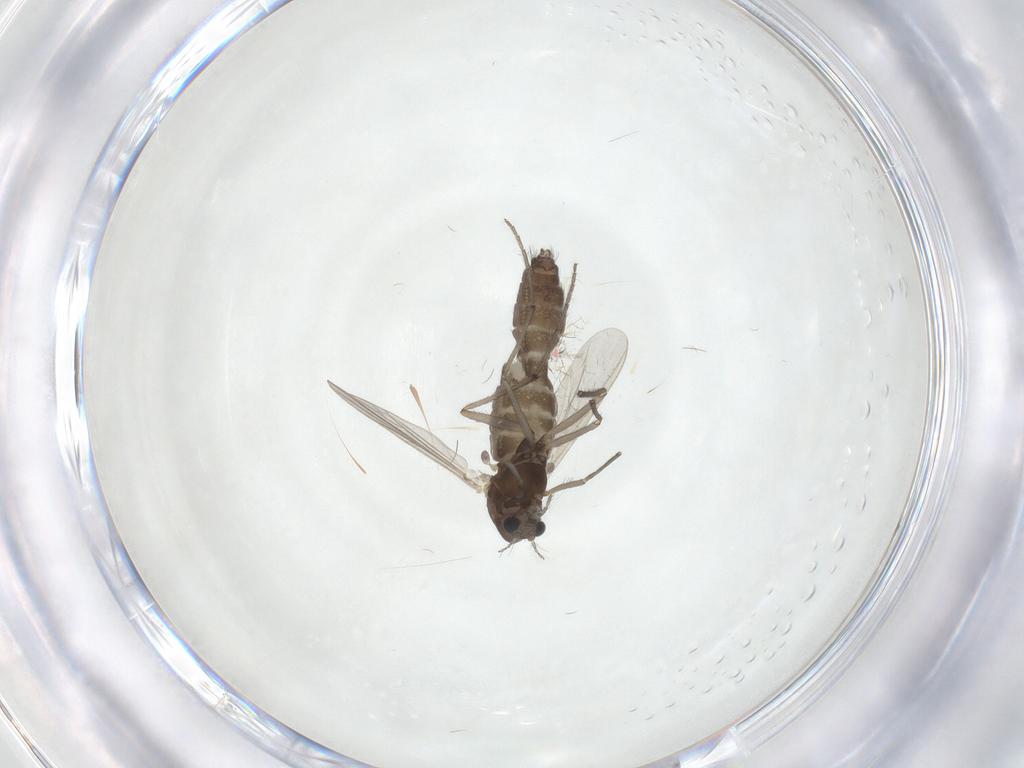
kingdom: Animalia
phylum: Arthropoda
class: Insecta
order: Diptera
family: Chironomidae
